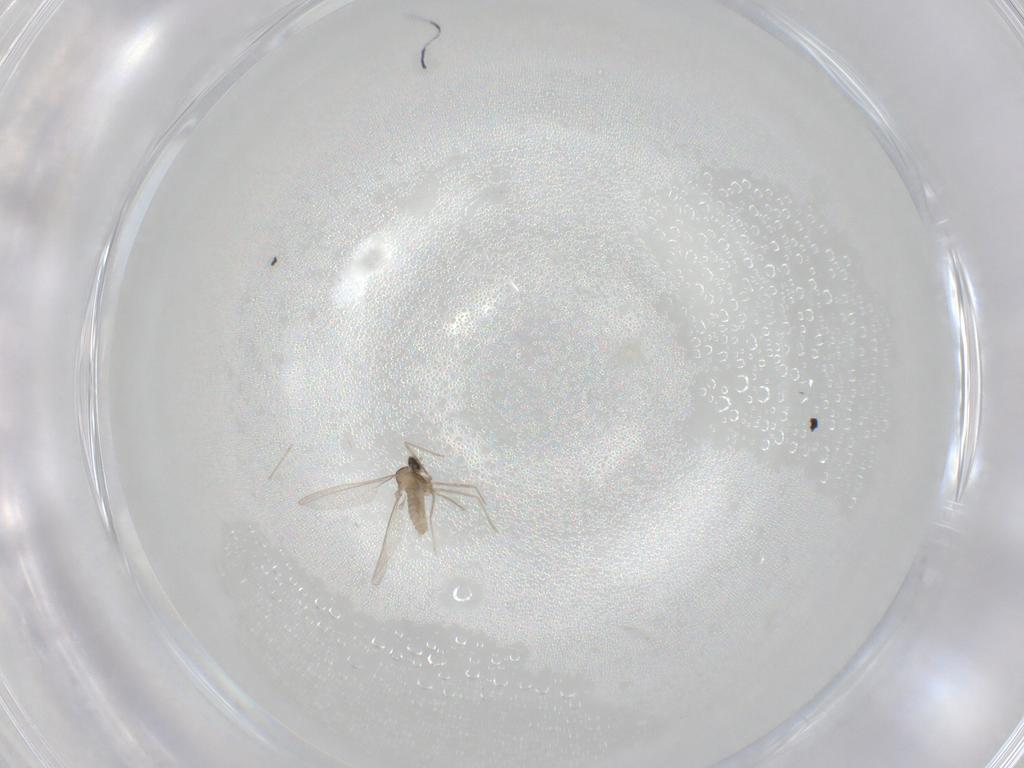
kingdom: Animalia
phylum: Arthropoda
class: Insecta
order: Diptera
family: Cecidomyiidae
